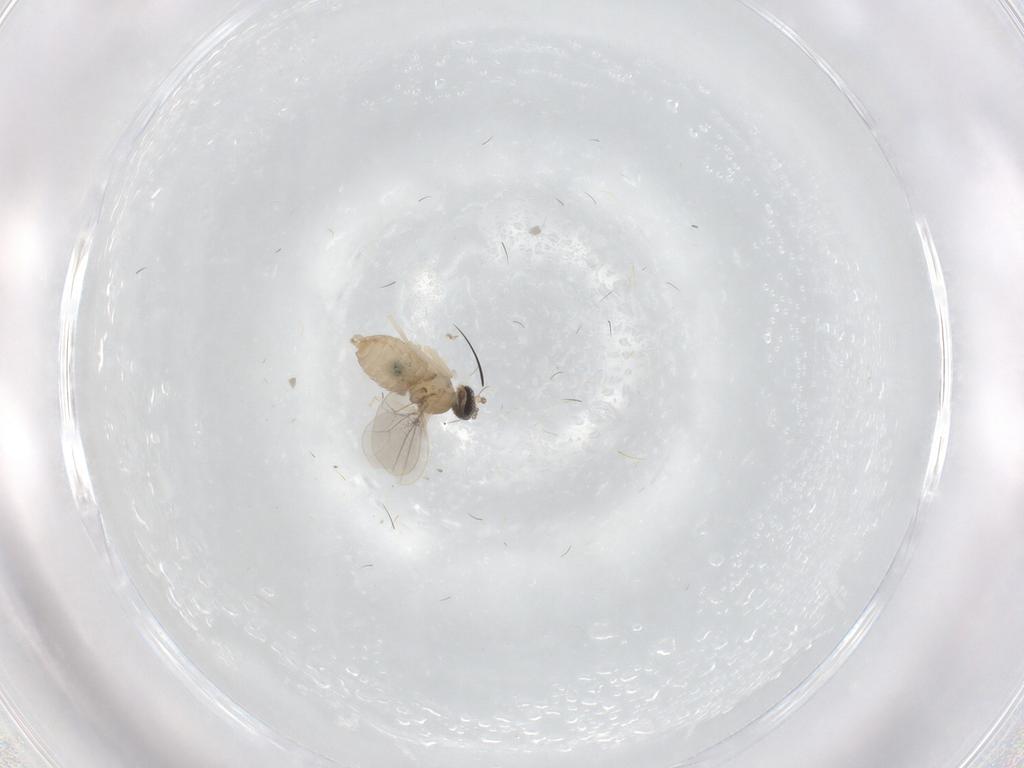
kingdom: Animalia
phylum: Arthropoda
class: Insecta
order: Diptera
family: Cecidomyiidae
